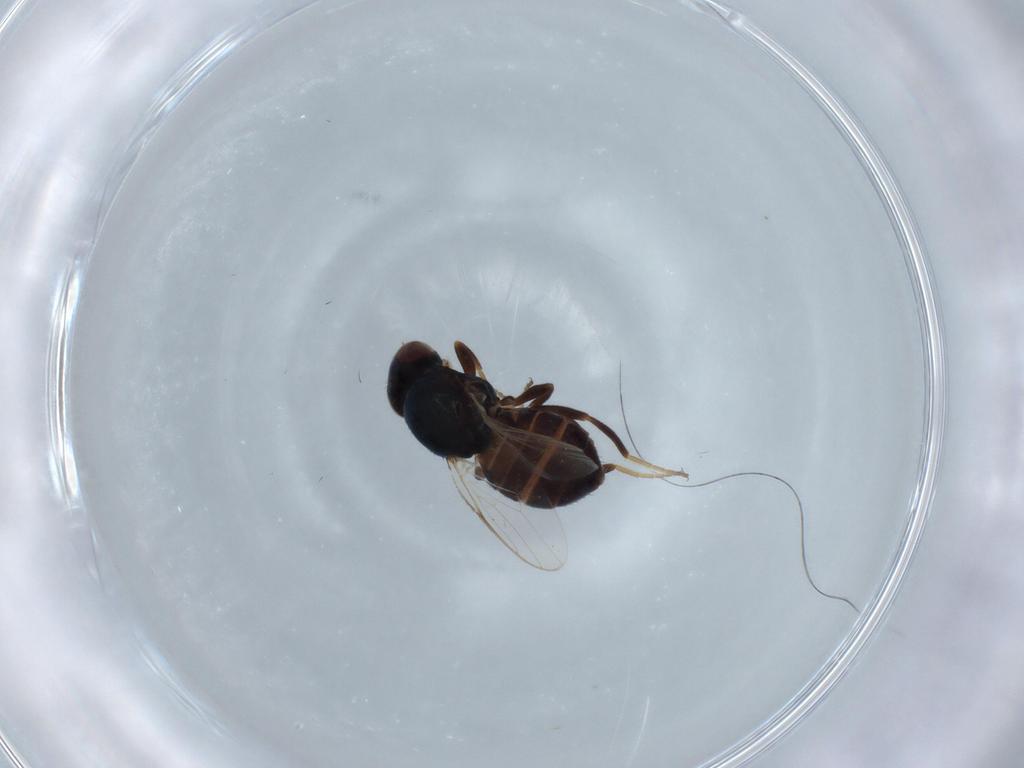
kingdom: Animalia
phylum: Arthropoda
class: Insecta
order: Diptera
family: Chloropidae
